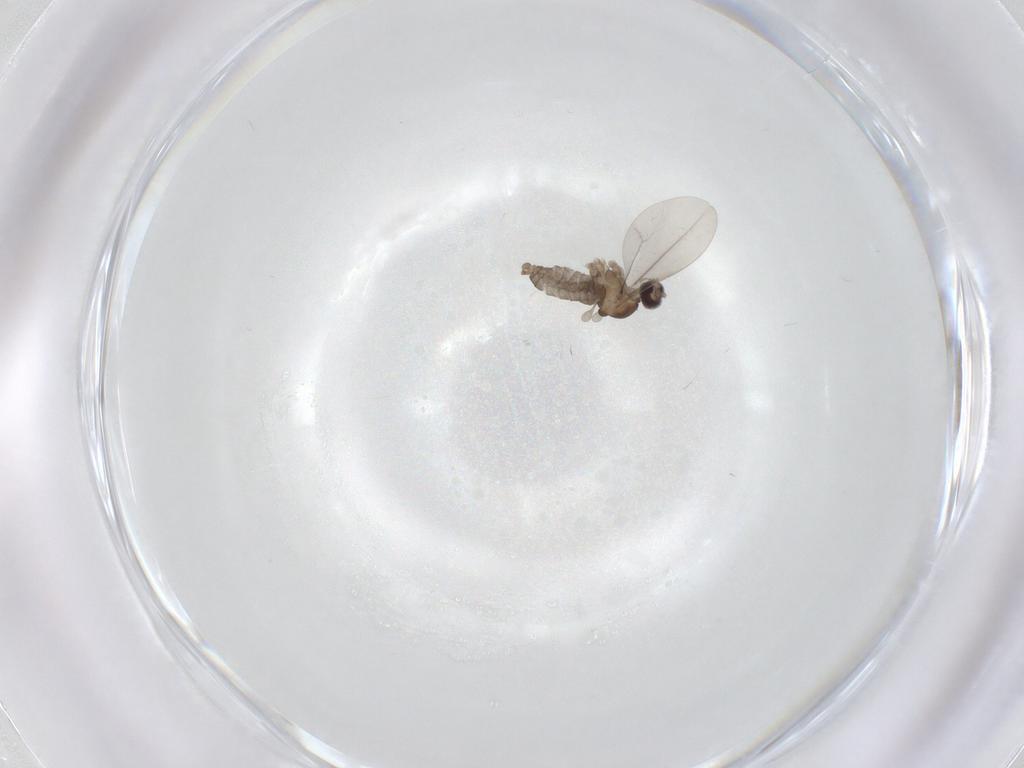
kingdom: Animalia
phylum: Arthropoda
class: Insecta
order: Diptera
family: Cecidomyiidae
